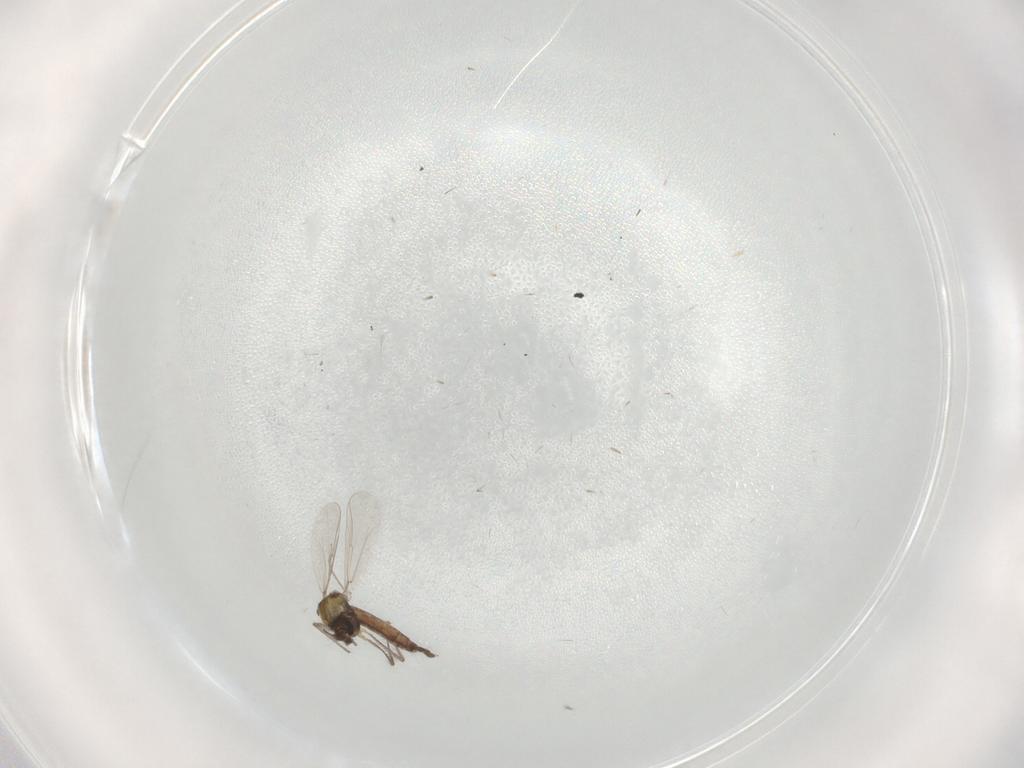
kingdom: Animalia
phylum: Arthropoda
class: Insecta
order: Diptera
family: Chironomidae
